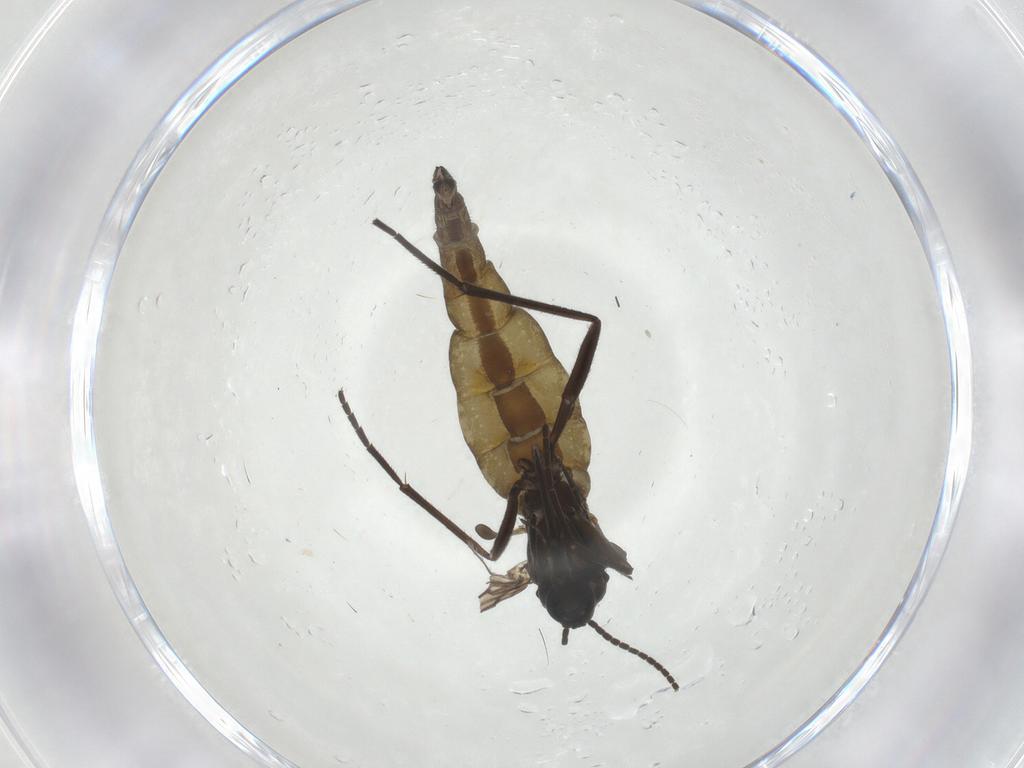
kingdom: Animalia
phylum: Arthropoda
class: Insecta
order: Diptera
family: Sciaridae
